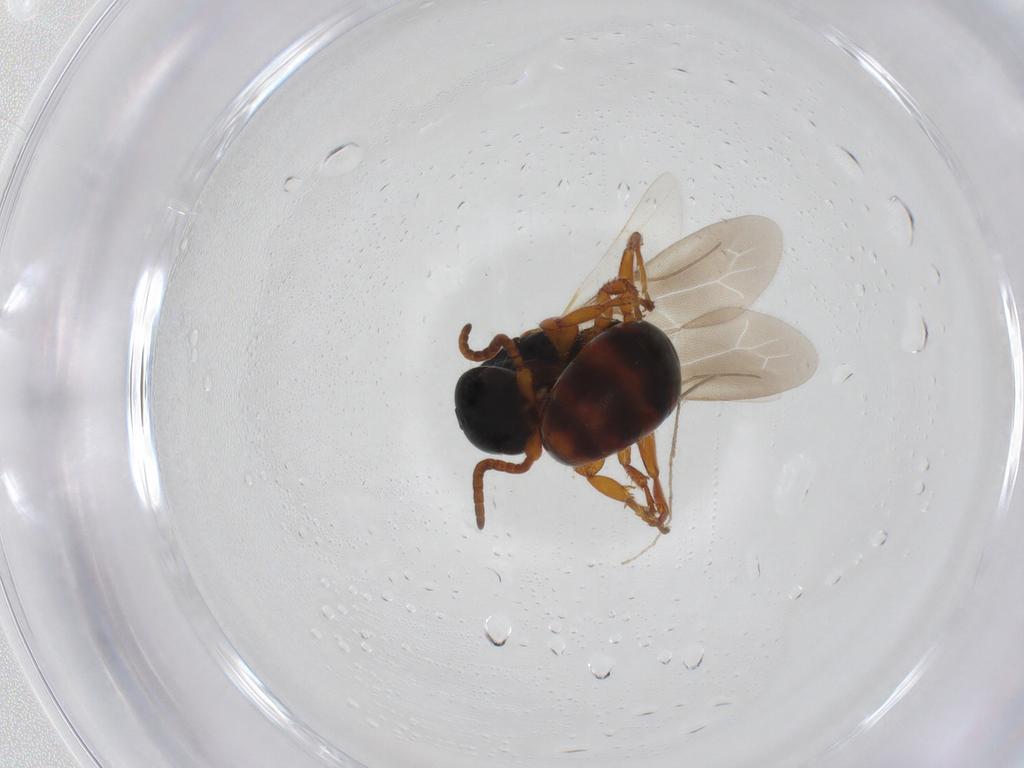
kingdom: Animalia
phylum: Arthropoda
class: Insecta
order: Hymenoptera
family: Bethylidae
